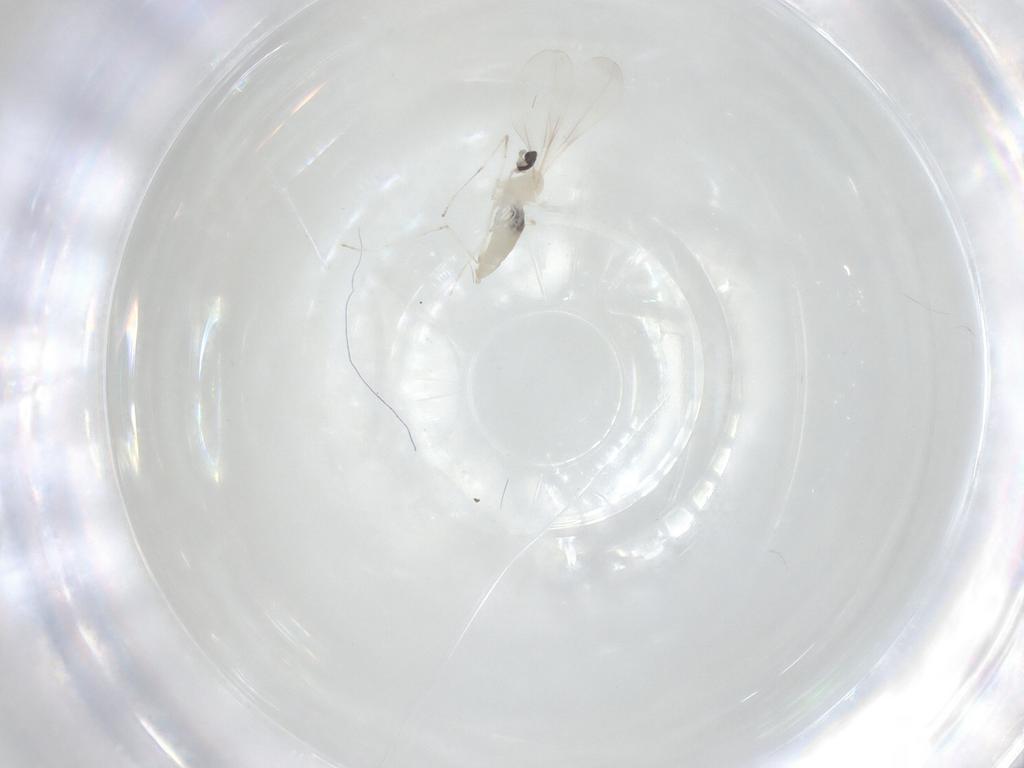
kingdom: Animalia
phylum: Arthropoda
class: Insecta
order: Diptera
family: Cecidomyiidae
